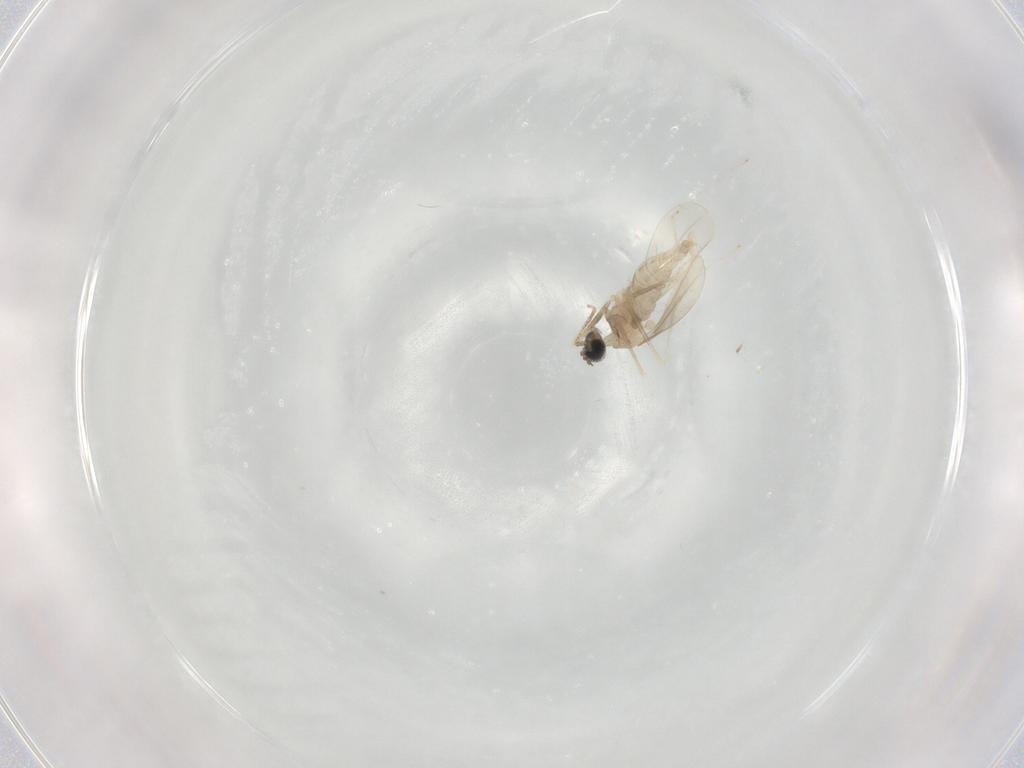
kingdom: Animalia
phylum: Arthropoda
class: Insecta
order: Diptera
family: Cecidomyiidae
